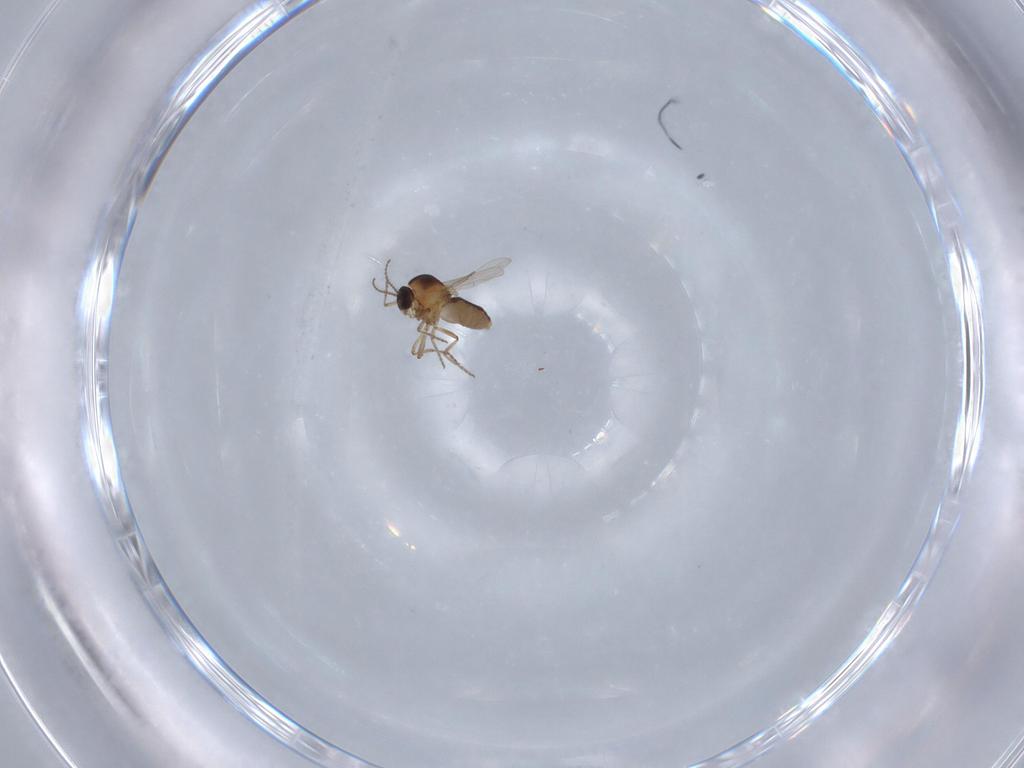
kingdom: Animalia
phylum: Arthropoda
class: Insecta
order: Diptera
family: Ceratopogonidae
